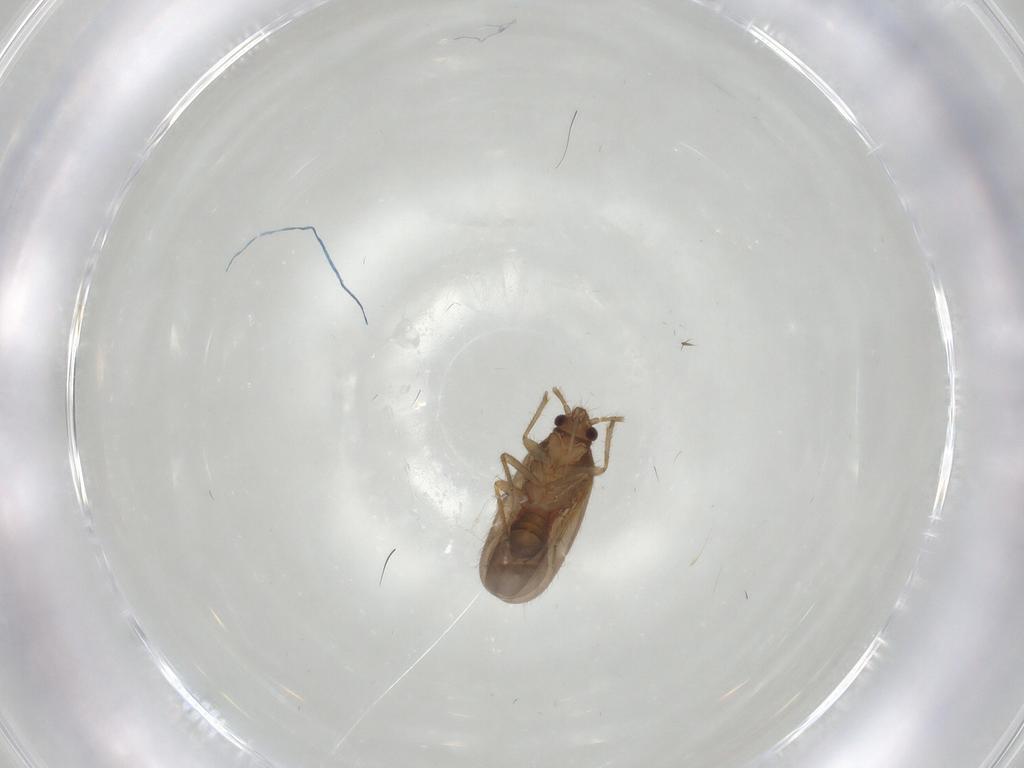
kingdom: Animalia
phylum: Arthropoda
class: Insecta
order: Hemiptera
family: Ceratocombidae
